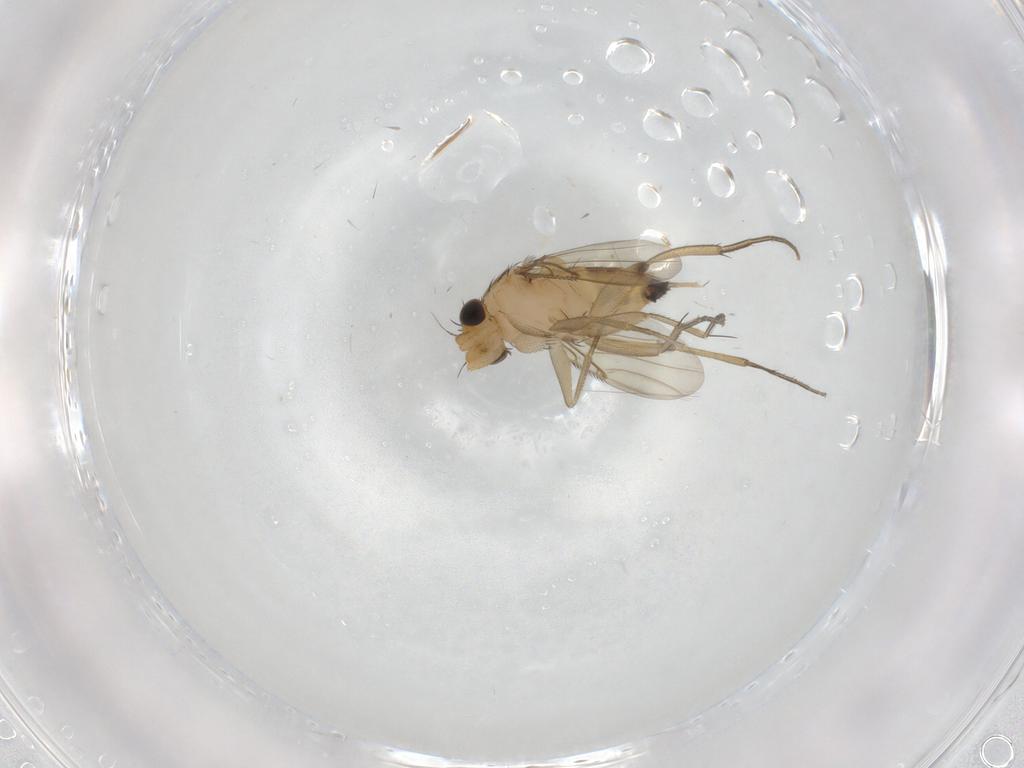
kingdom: Animalia
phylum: Arthropoda
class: Insecta
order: Diptera
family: Phoridae
